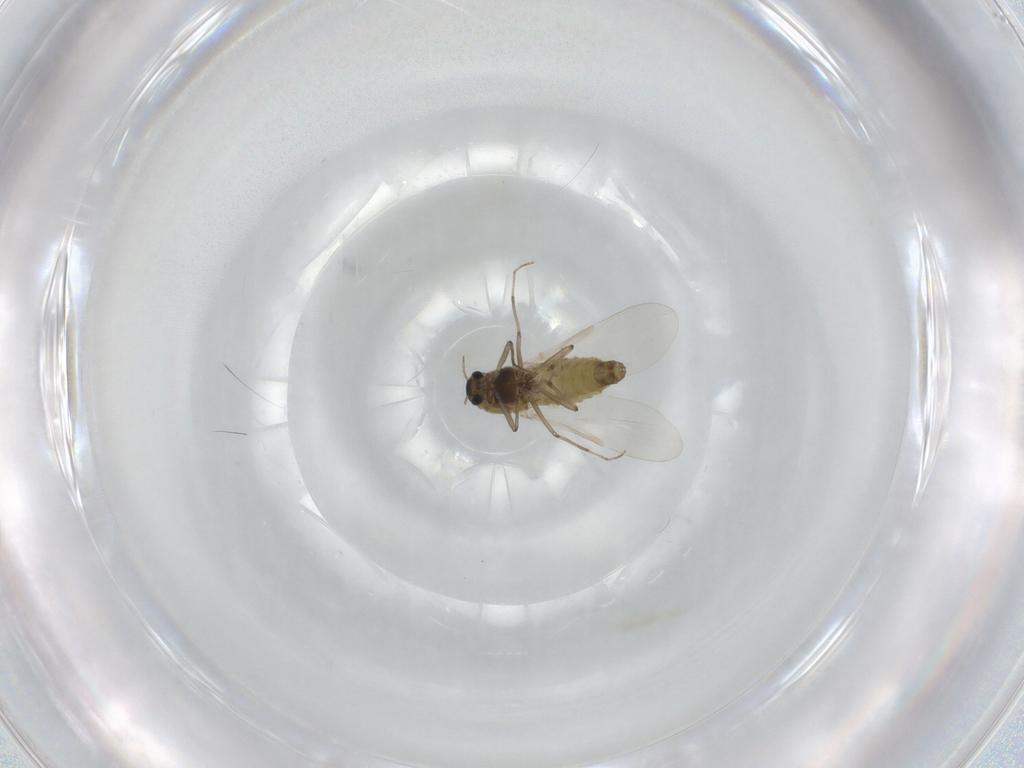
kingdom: Animalia
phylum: Arthropoda
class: Insecta
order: Diptera
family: Chironomidae
